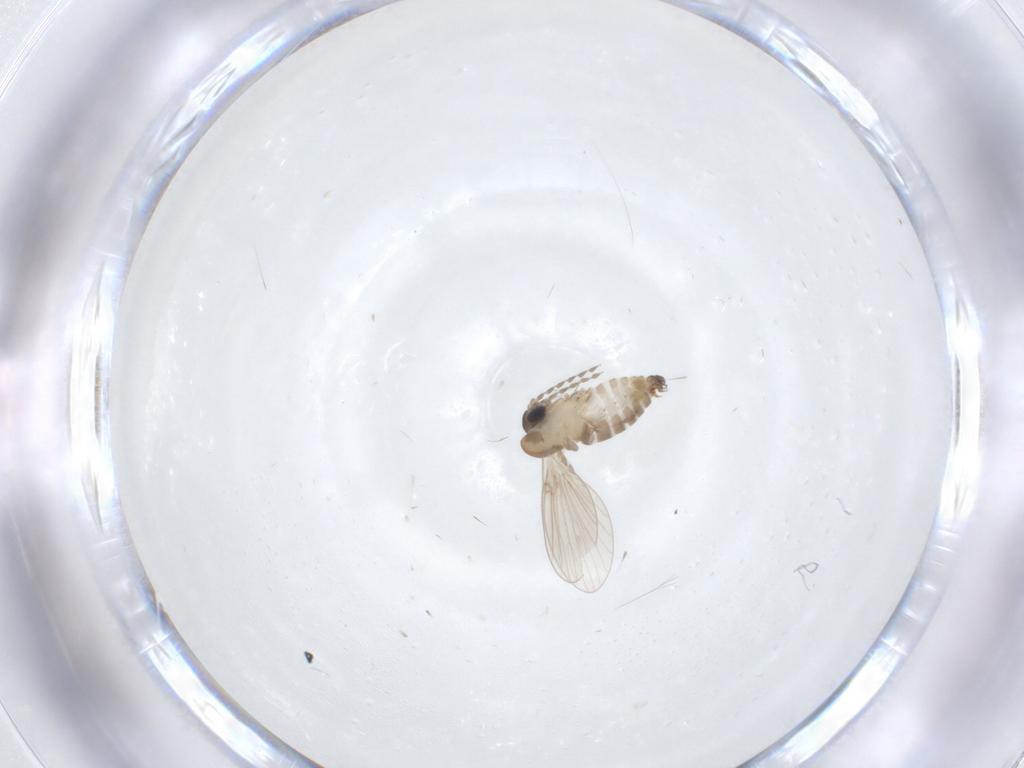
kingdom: Animalia
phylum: Arthropoda
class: Insecta
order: Diptera
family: Psychodidae
